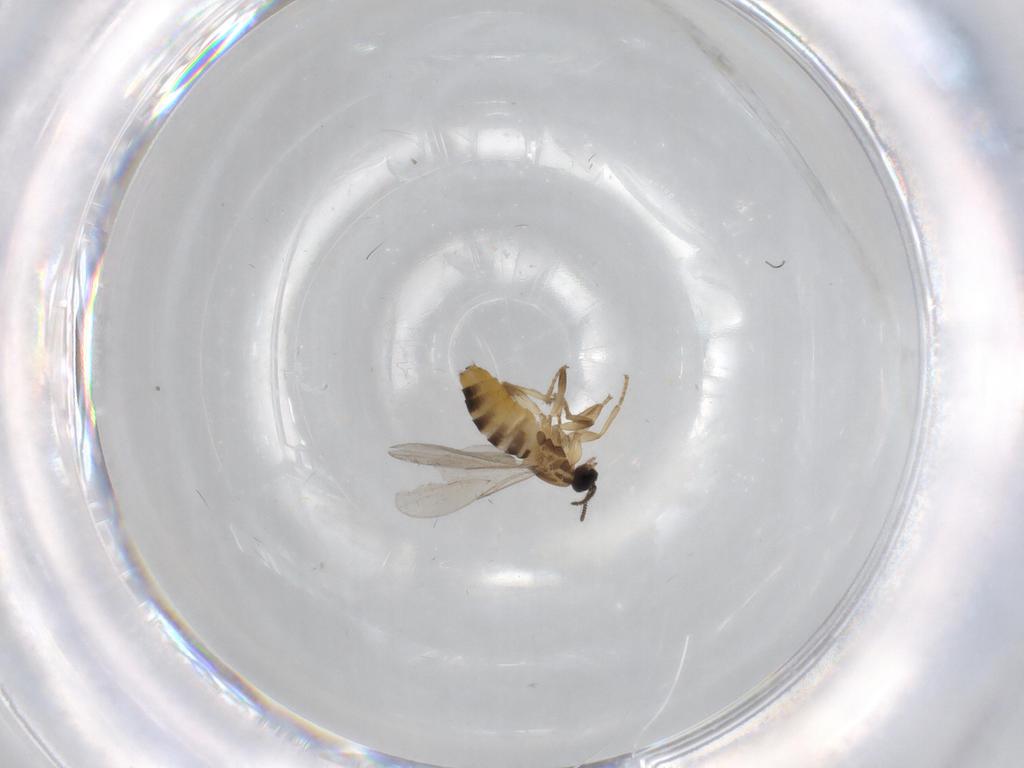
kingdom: Animalia
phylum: Arthropoda
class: Insecta
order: Diptera
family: Scatopsidae
